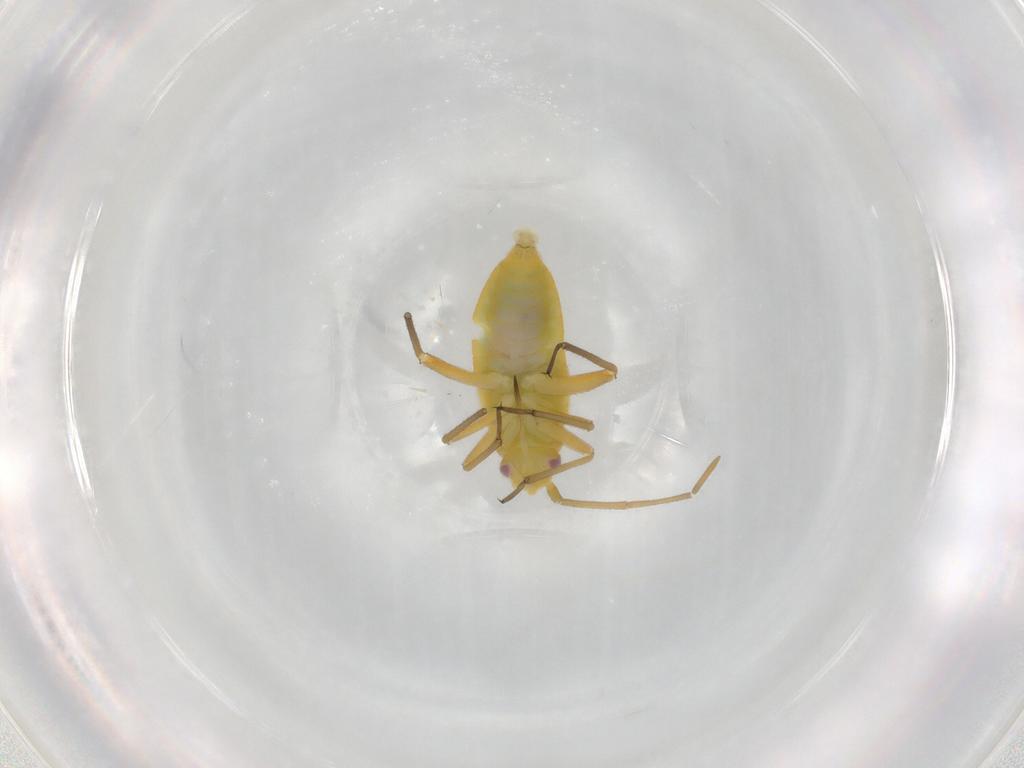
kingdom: Animalia
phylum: Arthropoda
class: Insecta
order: Hemiptera
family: Miridae
